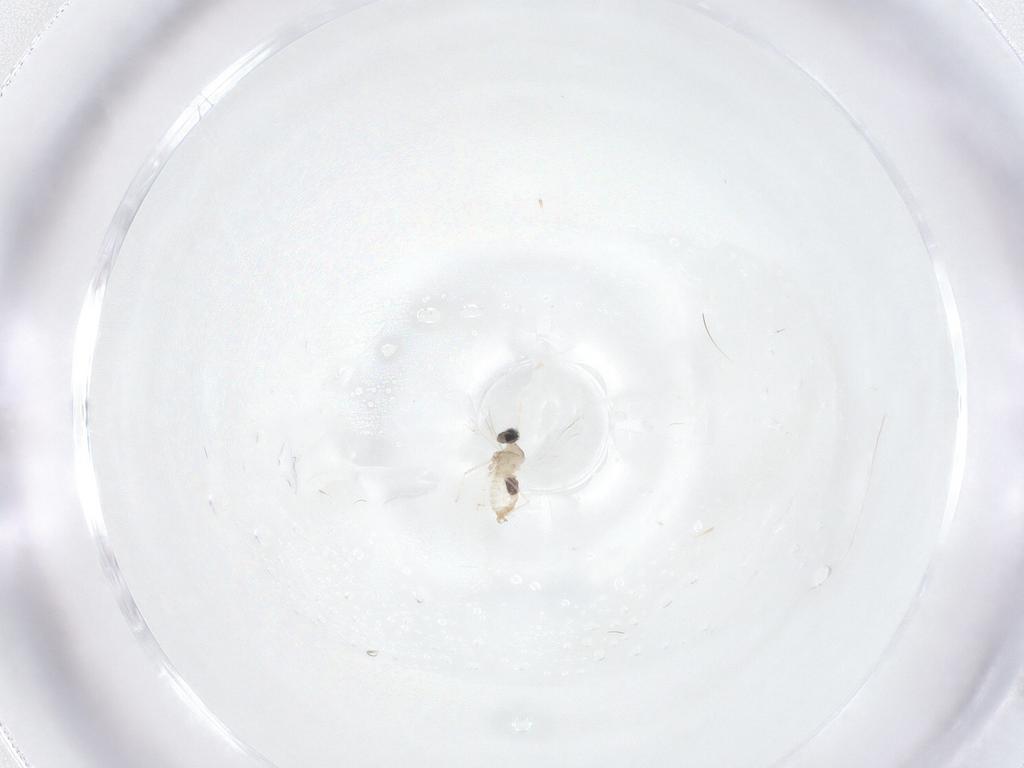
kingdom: Animalia
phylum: Arthropoda
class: Insecta
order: Diptera
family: Cecidomyiidae
